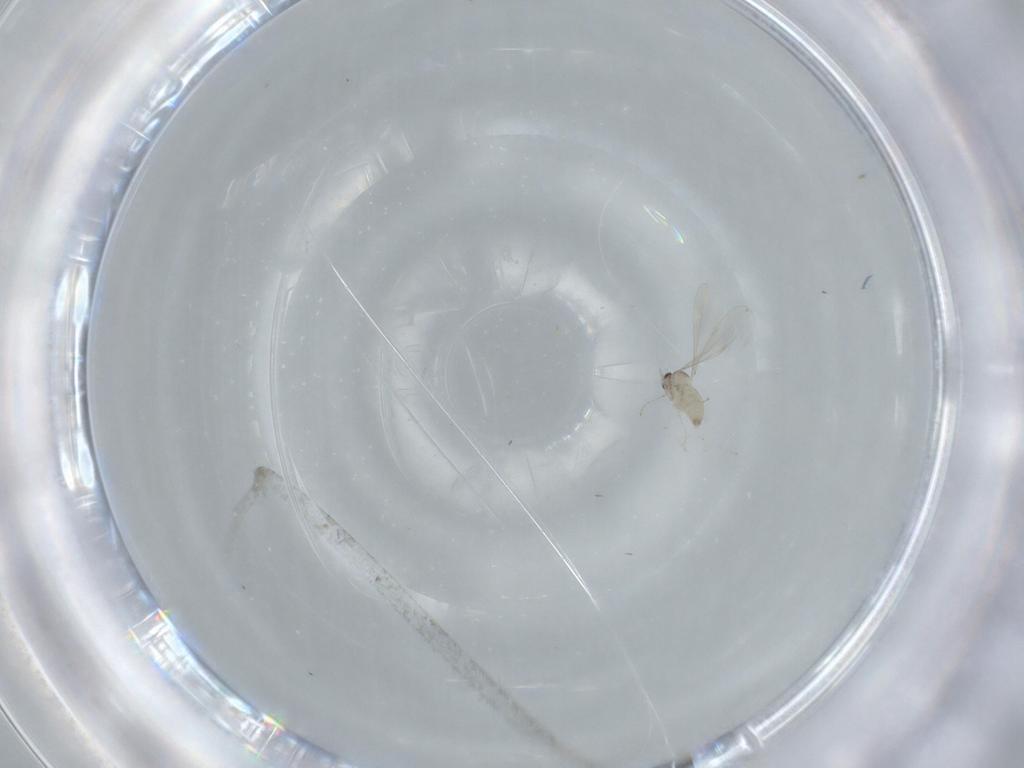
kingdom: Animalia
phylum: Arthropoda
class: Insecta
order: Diptera
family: Cecidomyiidae
